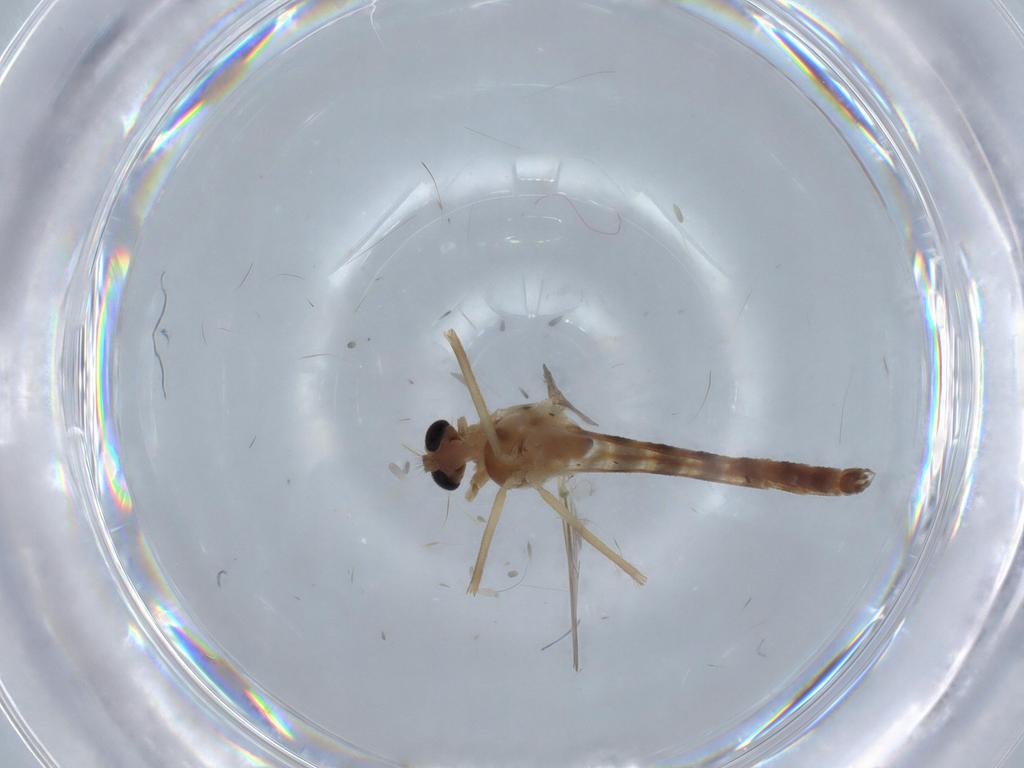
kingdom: Animalia
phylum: Arthropoda
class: Insecta
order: Diptera
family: Chironomidae
